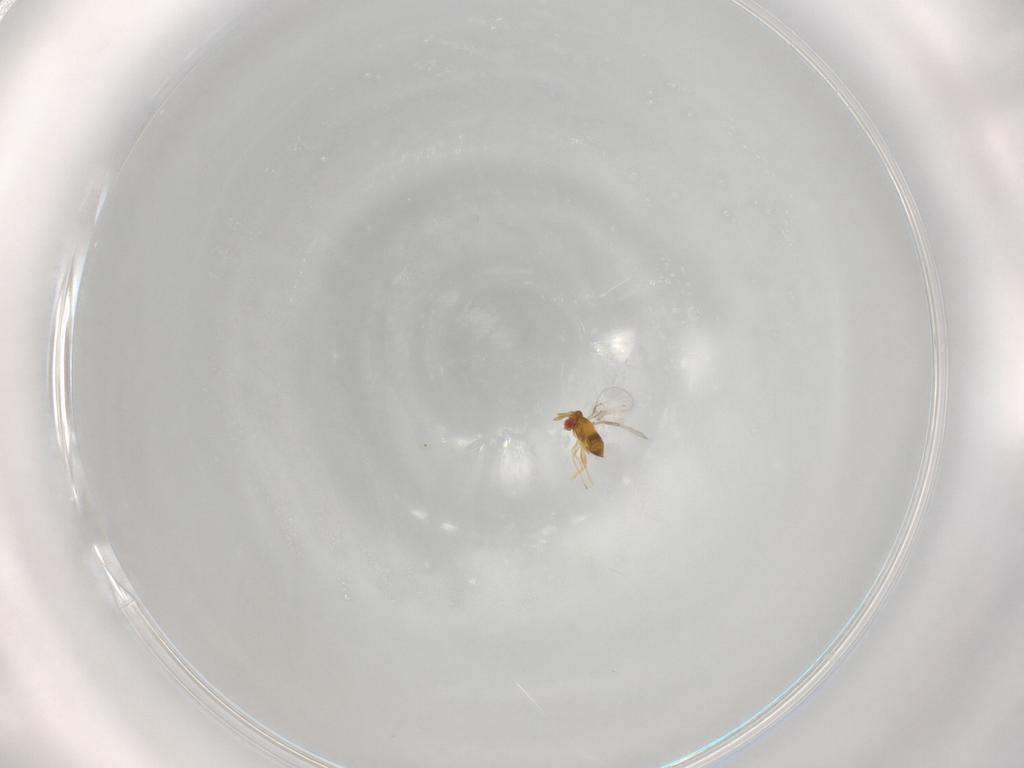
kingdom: Animalia
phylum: Arthropoda
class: Insecta
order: Hymenoptera
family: Trichogrammatidae
